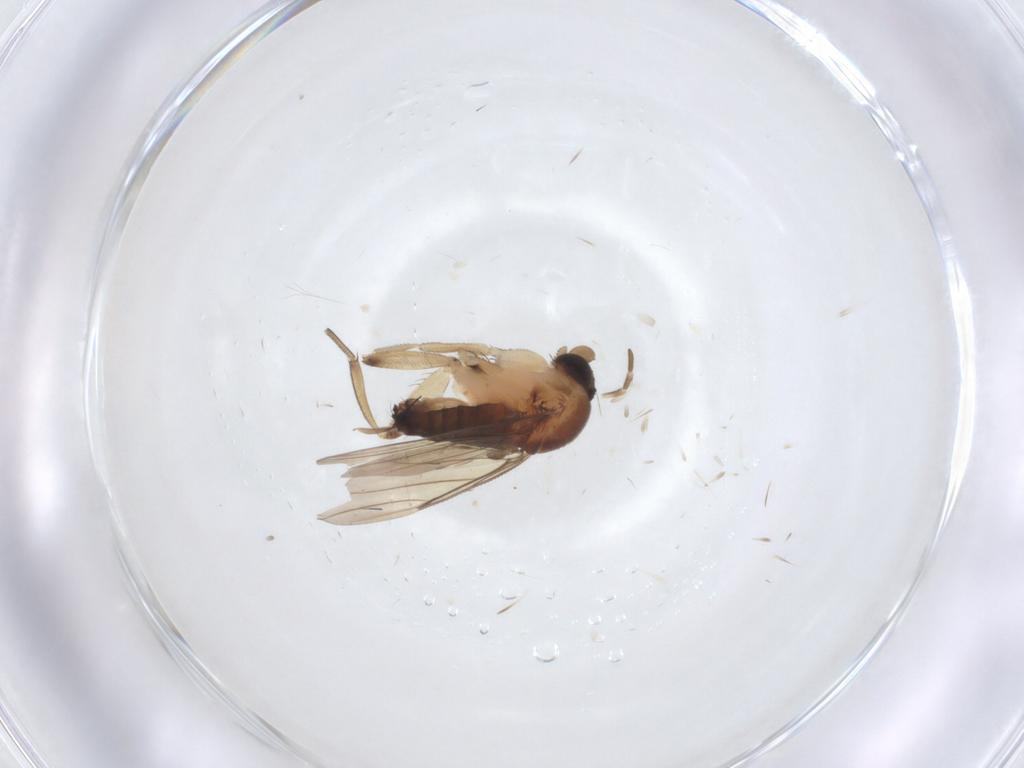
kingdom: Animalia
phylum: Arthropoda
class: Insecta
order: Diptera
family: Phoridae
